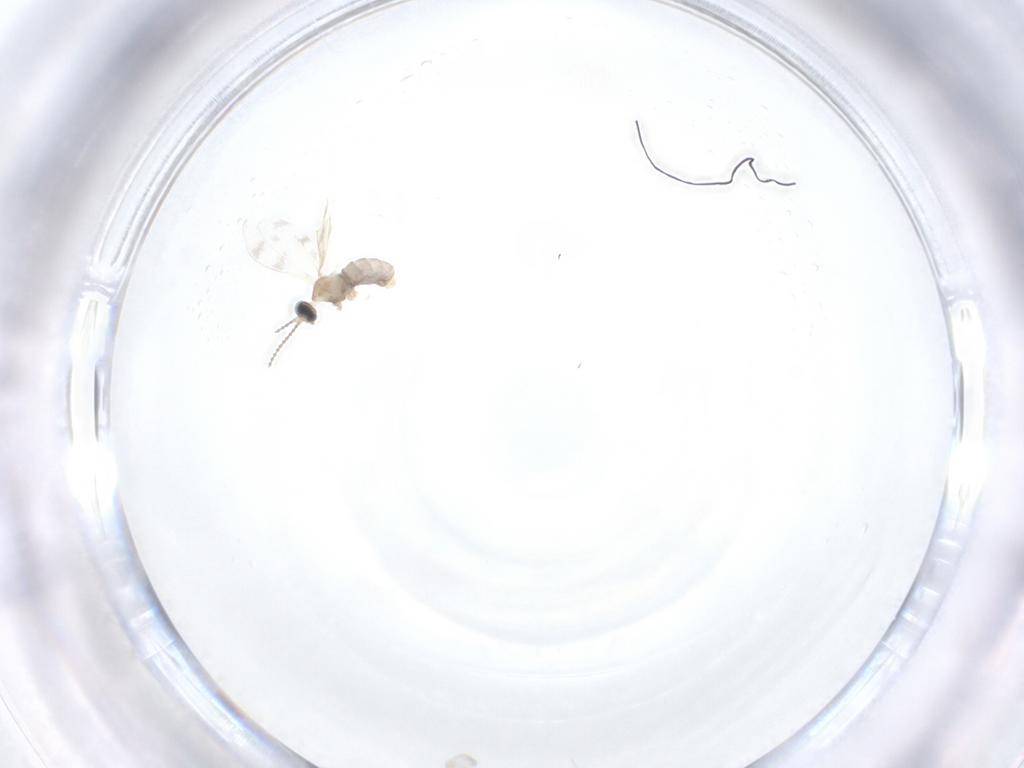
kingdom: Animalia
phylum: Arthropoda
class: Insecta
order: Diptera
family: Cecidomyiidae
